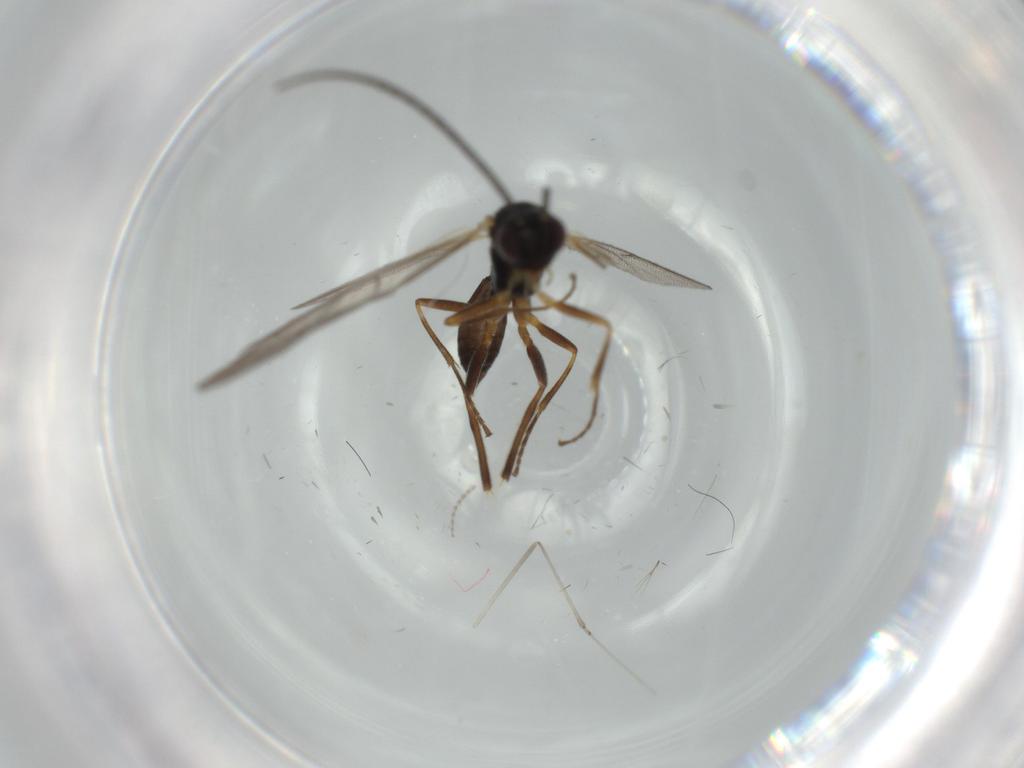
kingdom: Animalia
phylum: Arthropoda
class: Insecta
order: Hymenoptera
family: Ichneumonidae
